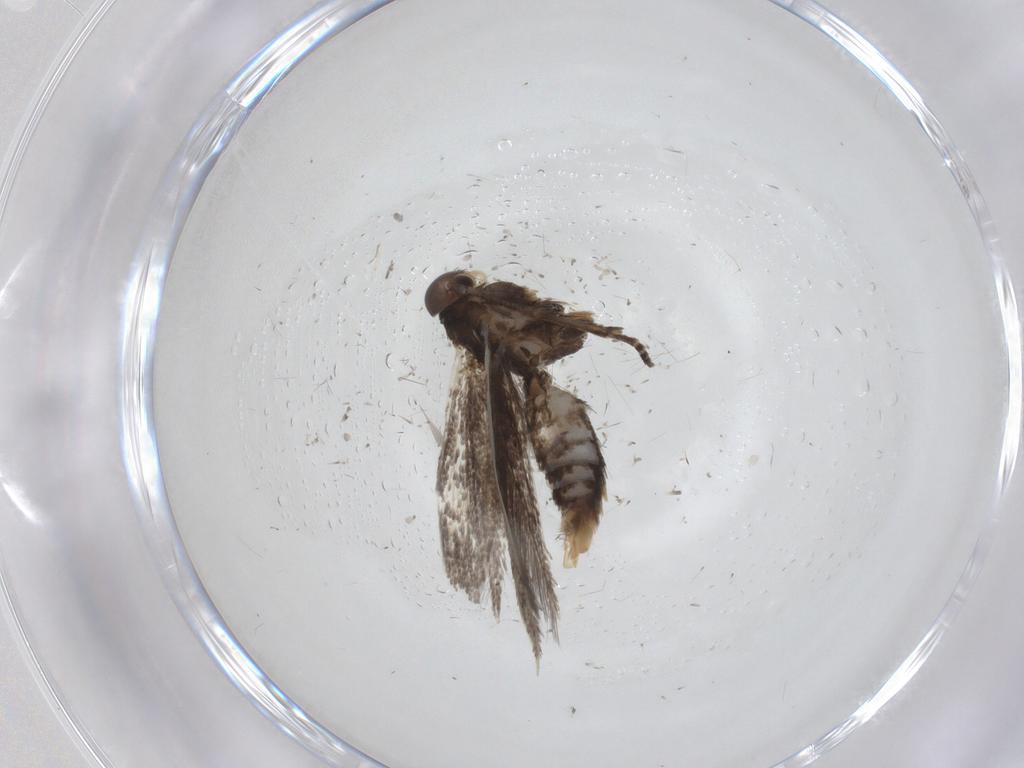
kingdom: Animalia
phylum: Arthropoda
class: Insecta
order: Lepidoptera
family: Elachistidae
